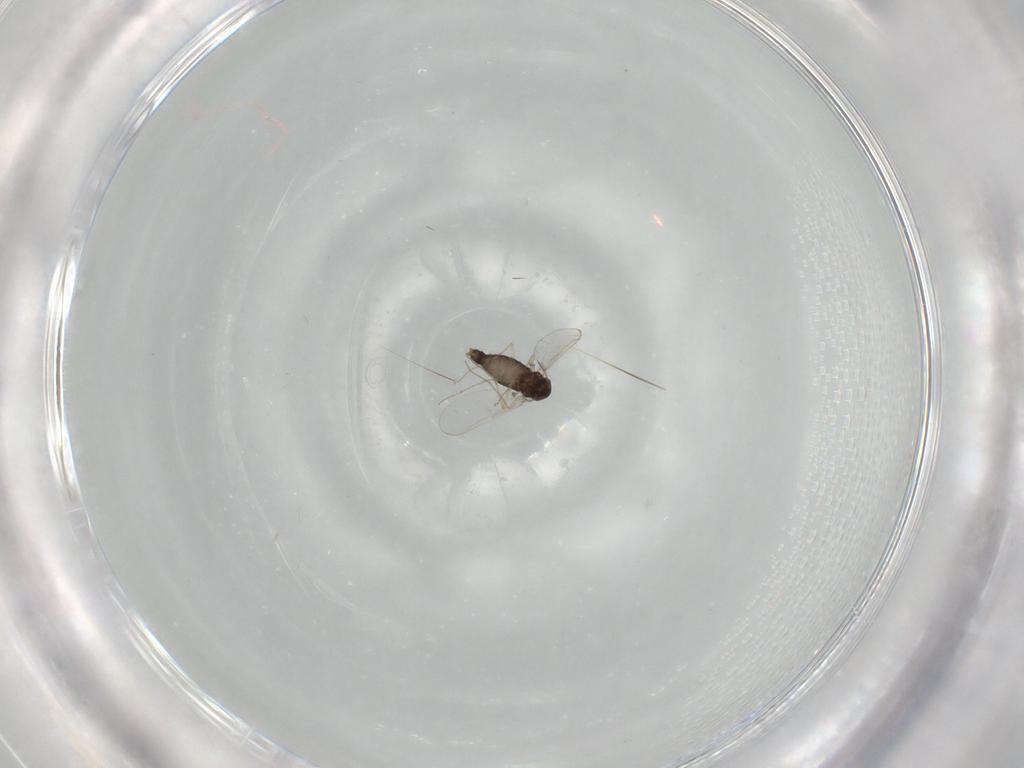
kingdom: Animalia
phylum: Arthropoda
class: Insecta
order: Diptera
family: Chironomidae
